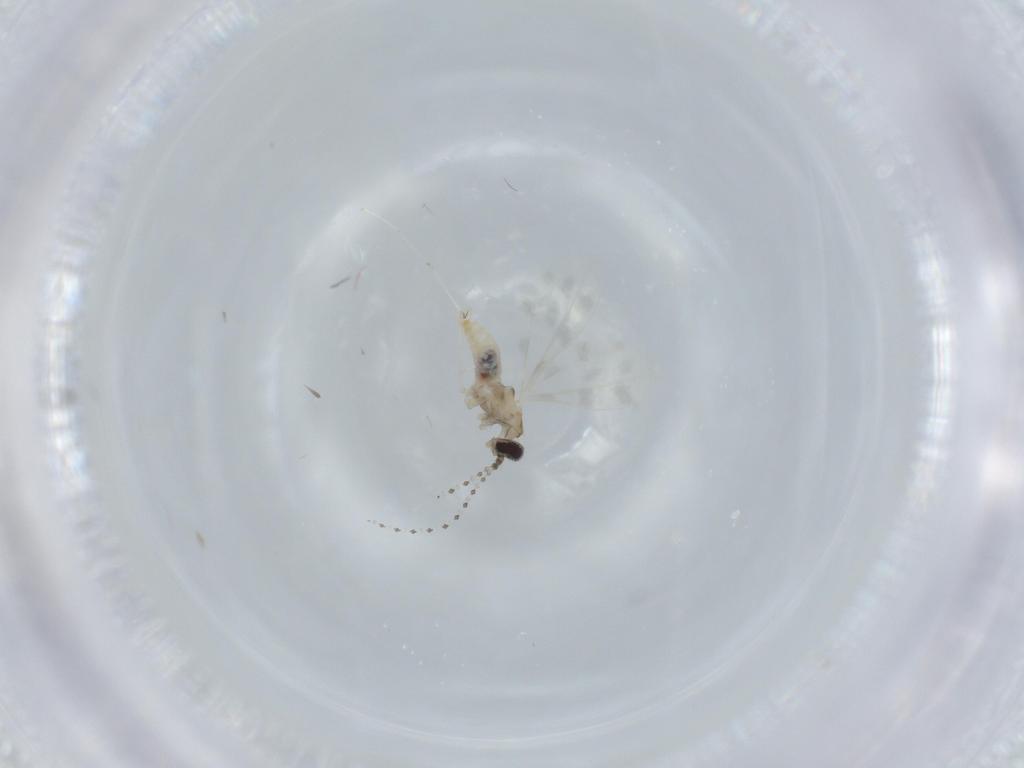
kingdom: Animalia
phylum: Arthropoda
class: Insecta
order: Diptera
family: Cecidomyiidae
